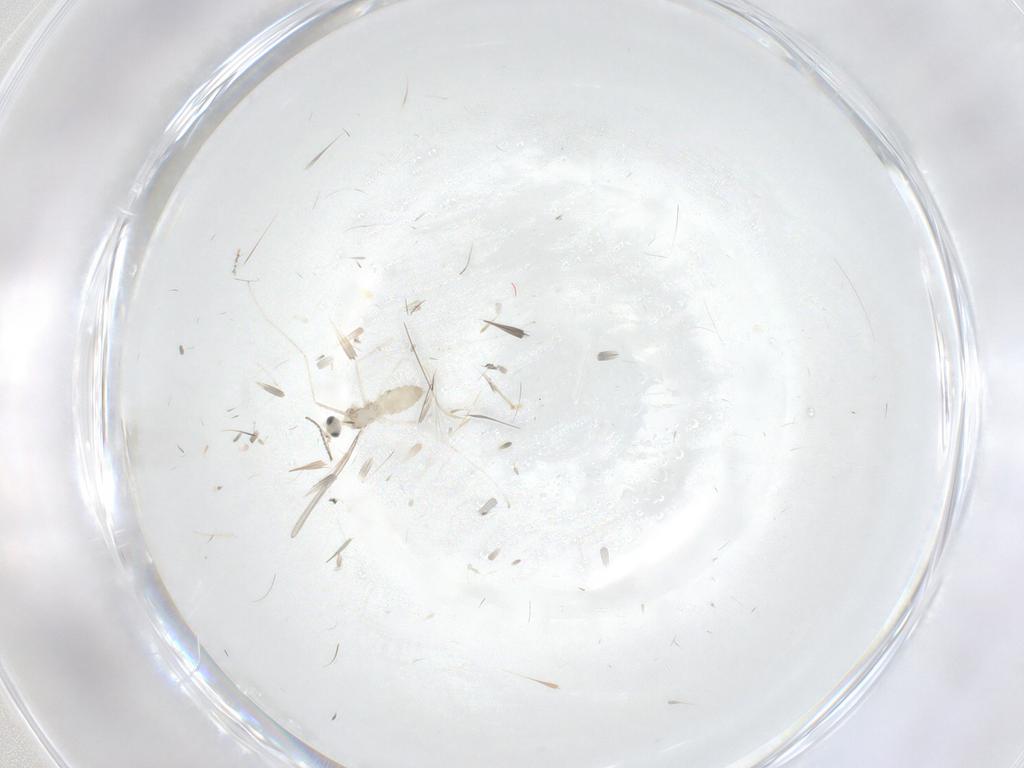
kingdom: Animalia
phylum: Arthropoda
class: Insecta
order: Diptera
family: Cecidomyiidae
